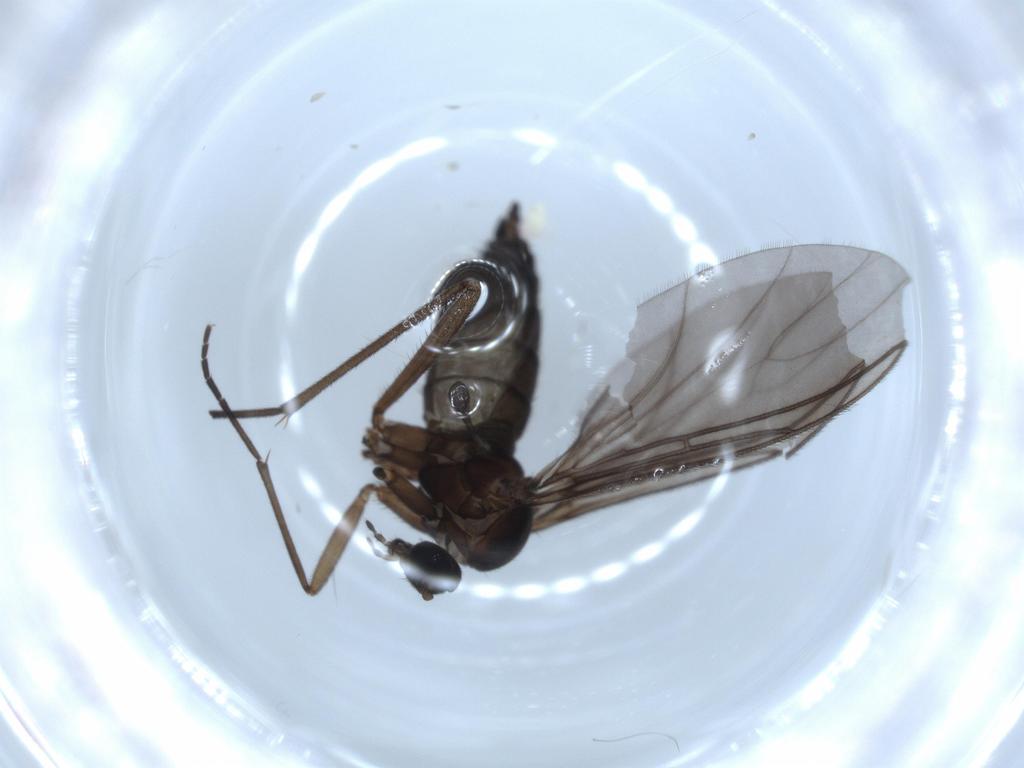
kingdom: Animalia
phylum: Arthropoda
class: Insecta
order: Diptera
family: Sciaridae
